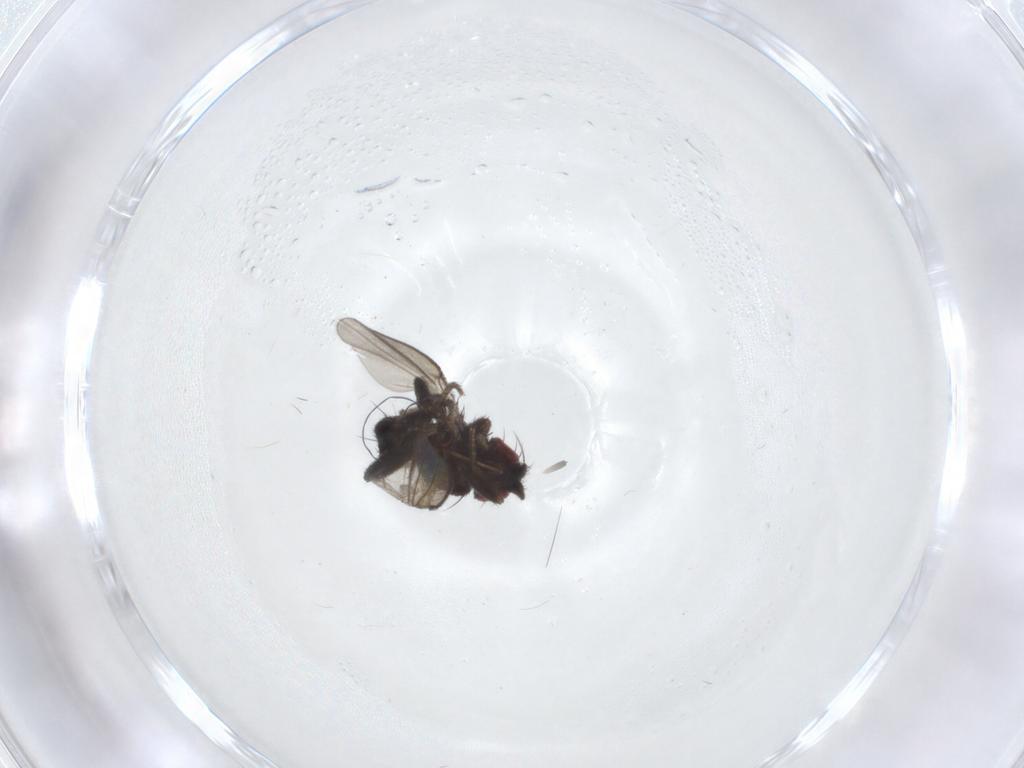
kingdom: Animalia
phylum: Arthropoda
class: Insecta
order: Diptera
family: Milichiidae
